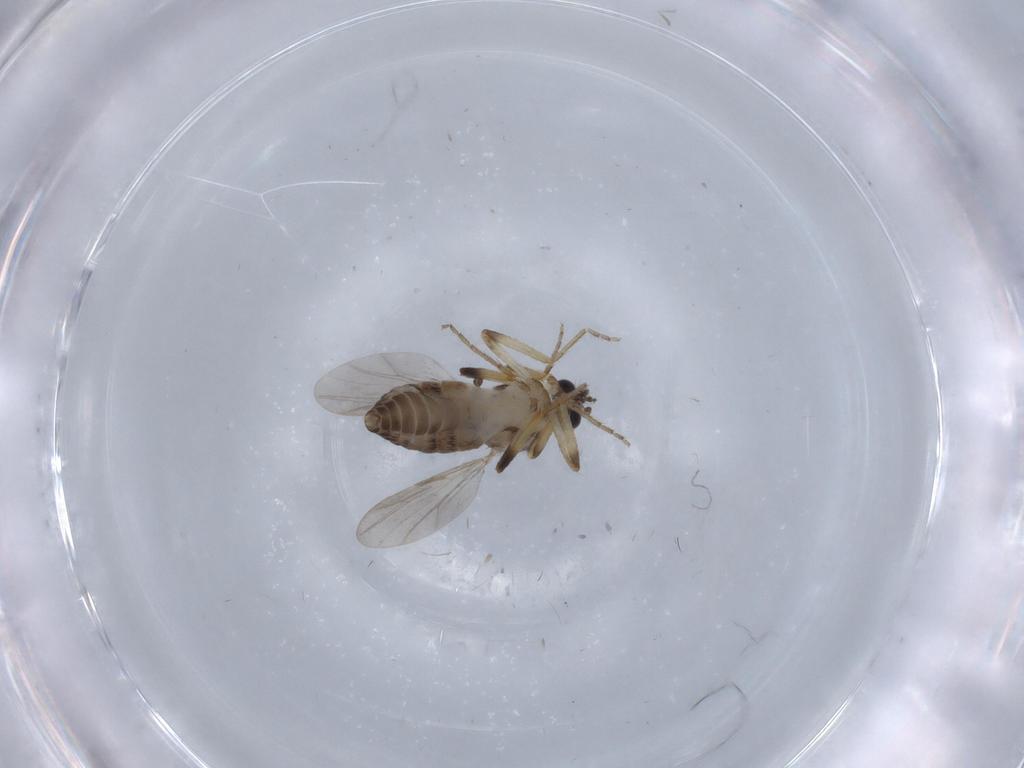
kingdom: Animalia
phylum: Arthropoda
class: Insecta
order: Diptera
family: Ceratopogonidae
